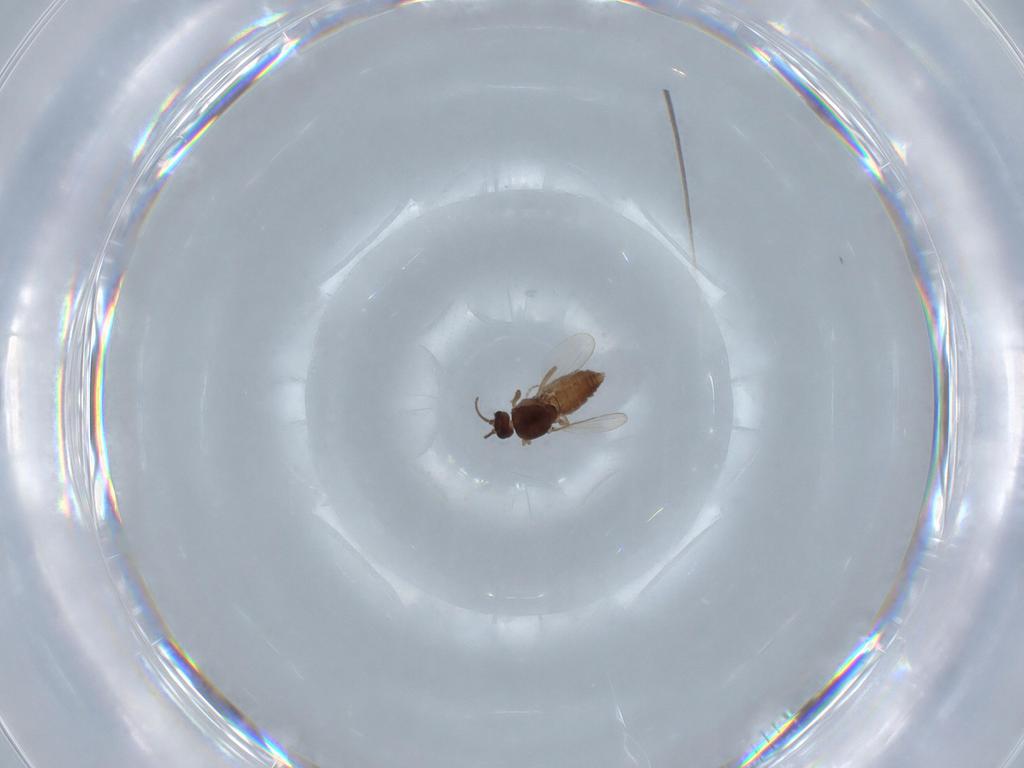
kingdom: Animalia
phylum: Arthropoda
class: Insecta
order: Diptera
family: Ceratopogonidae
